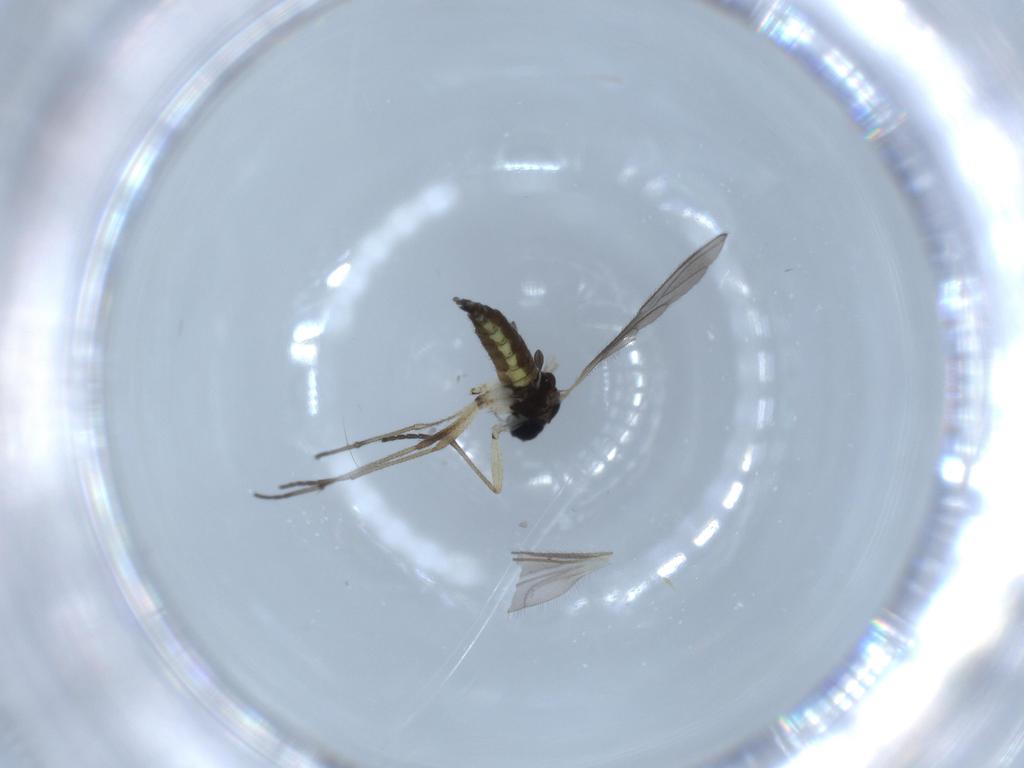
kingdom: Animalia
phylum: Arthropoda
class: Insecta
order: Diptera
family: Sciaridae
